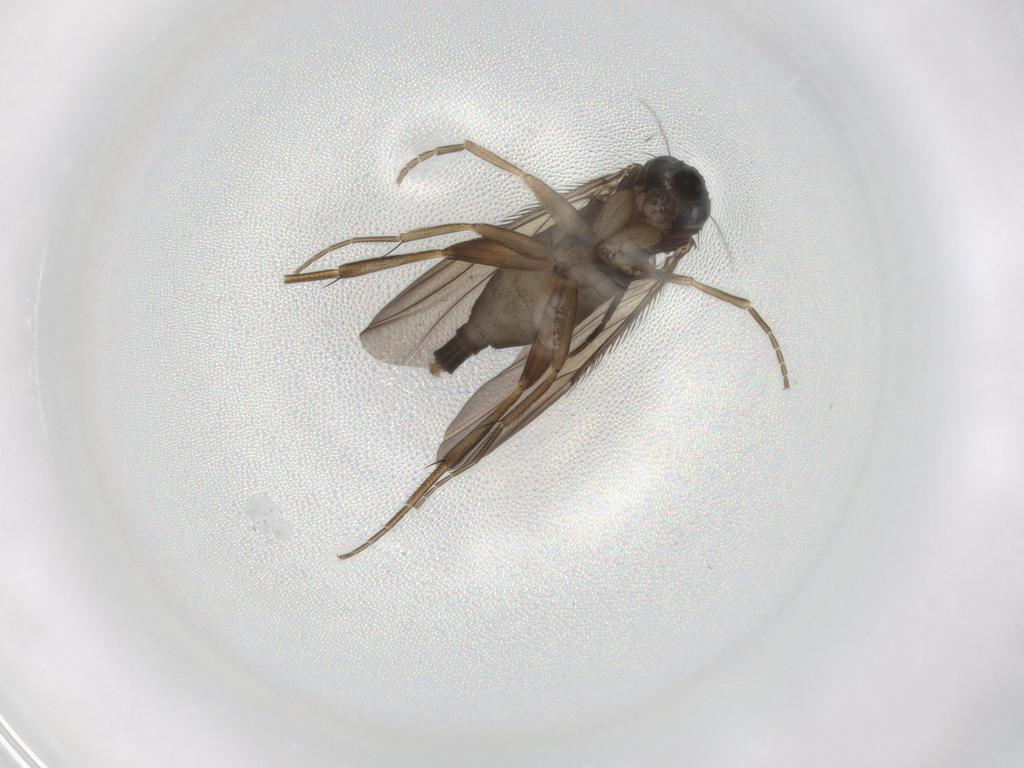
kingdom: Animalia
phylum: Arthropoda
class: Insecta
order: Diptera
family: Phoridae
